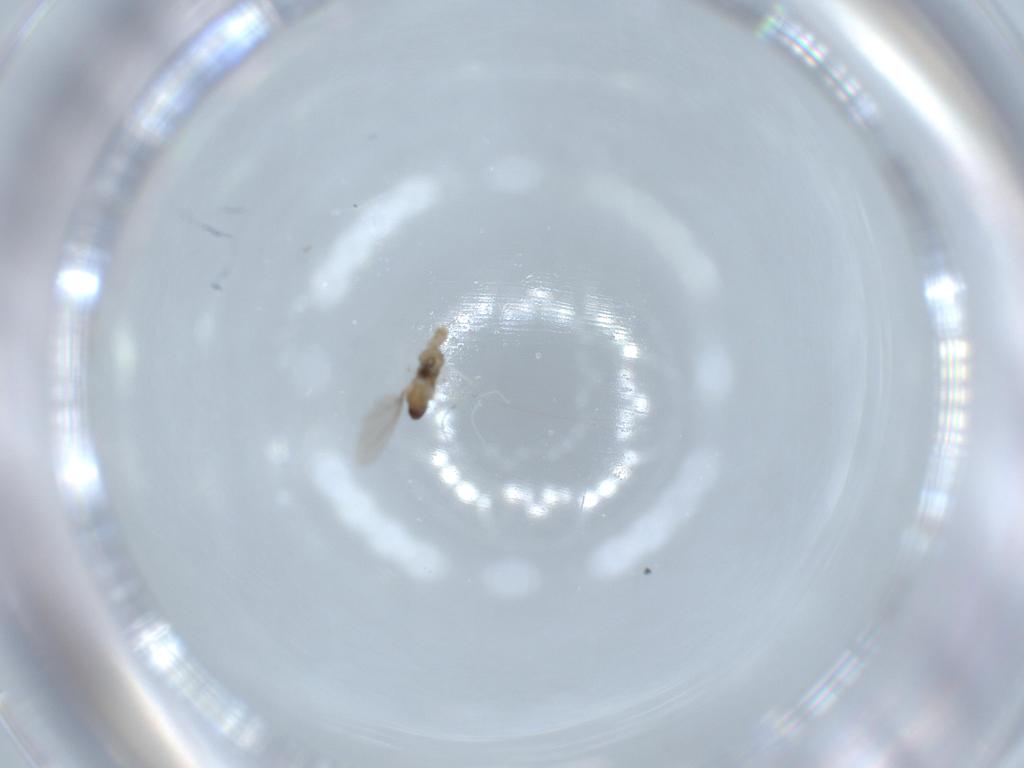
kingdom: Animalia
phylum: Arthropoda
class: Insecta
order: Diptera
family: Cecidomyiidae
